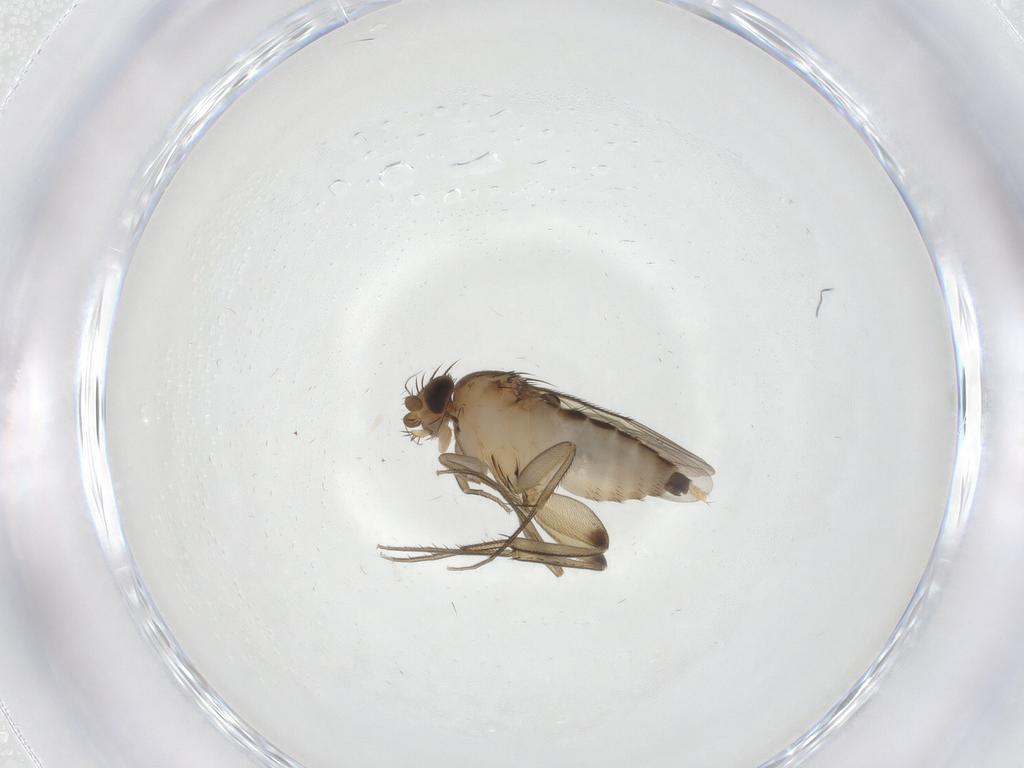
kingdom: Animalia
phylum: Arthropoda
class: Insecta
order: Diptera
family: Phoridae
